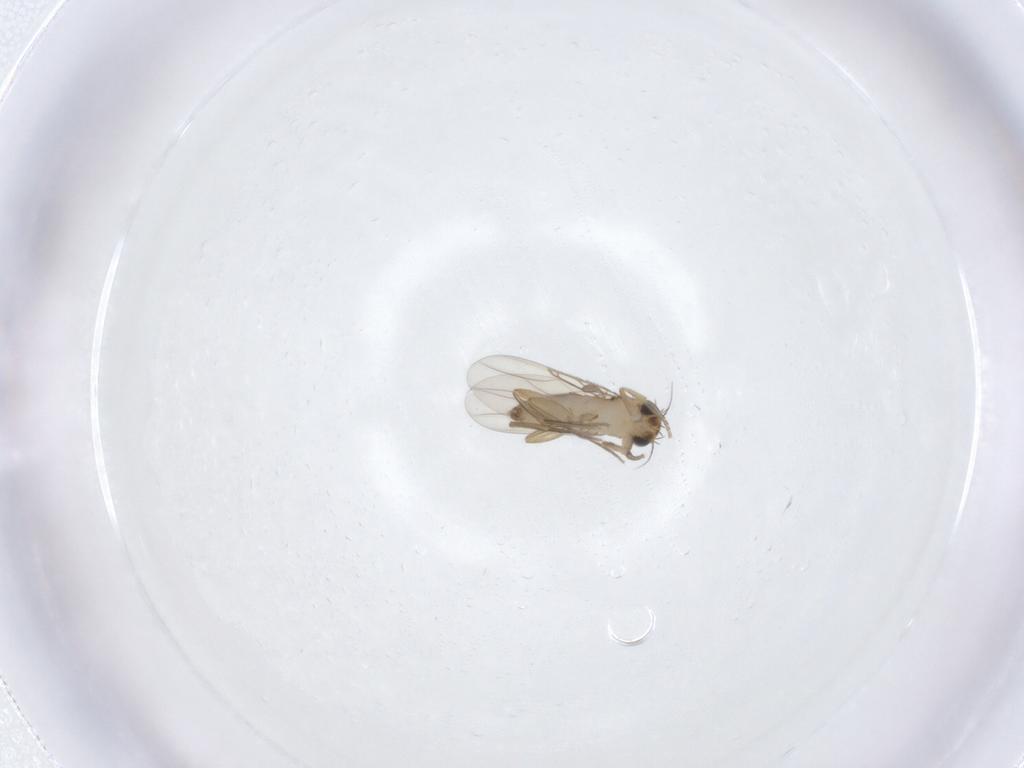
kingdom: Animalia
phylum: Arthropoda
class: Insecta
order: Diptera
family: Phoridae
